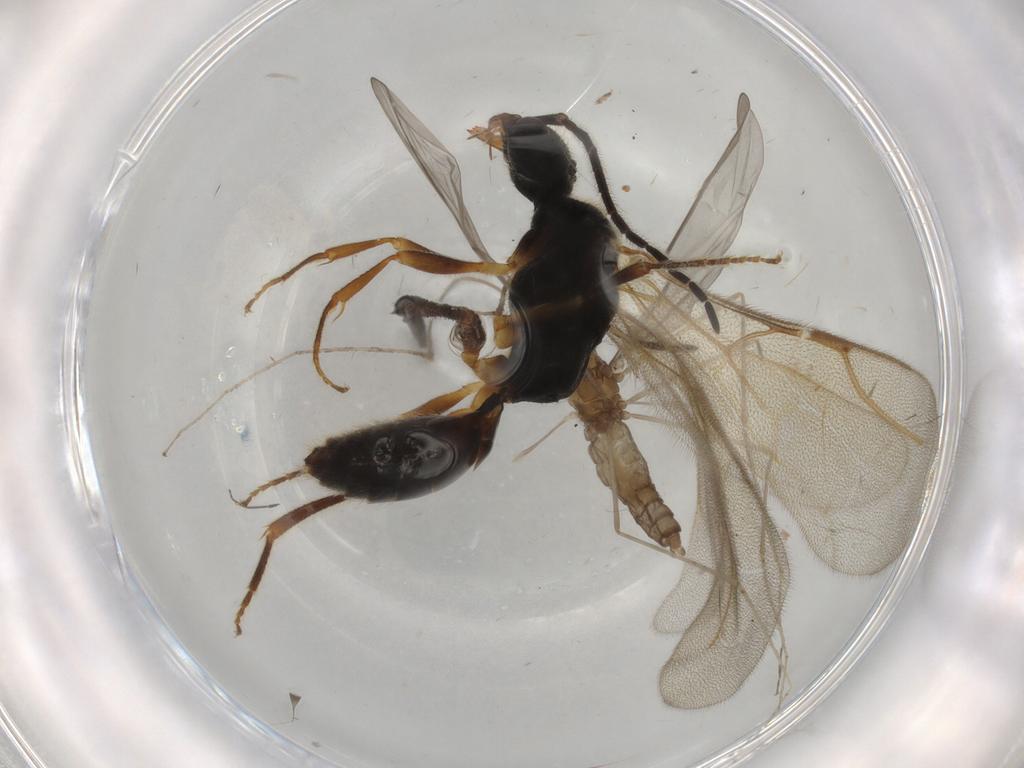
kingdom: Animalia
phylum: Arthropoda
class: Insecta
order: Hymenoptera
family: Bethylidae
